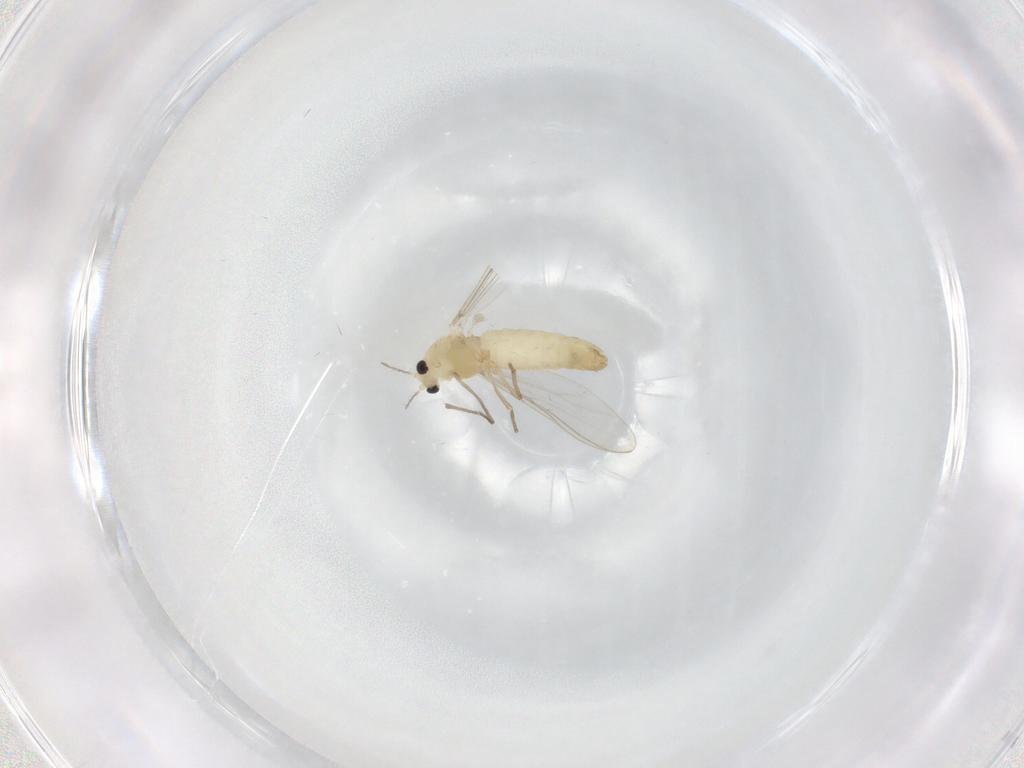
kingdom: Animalia
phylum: Arthropoda
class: Insecta
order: Diptera
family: Chironomidae
